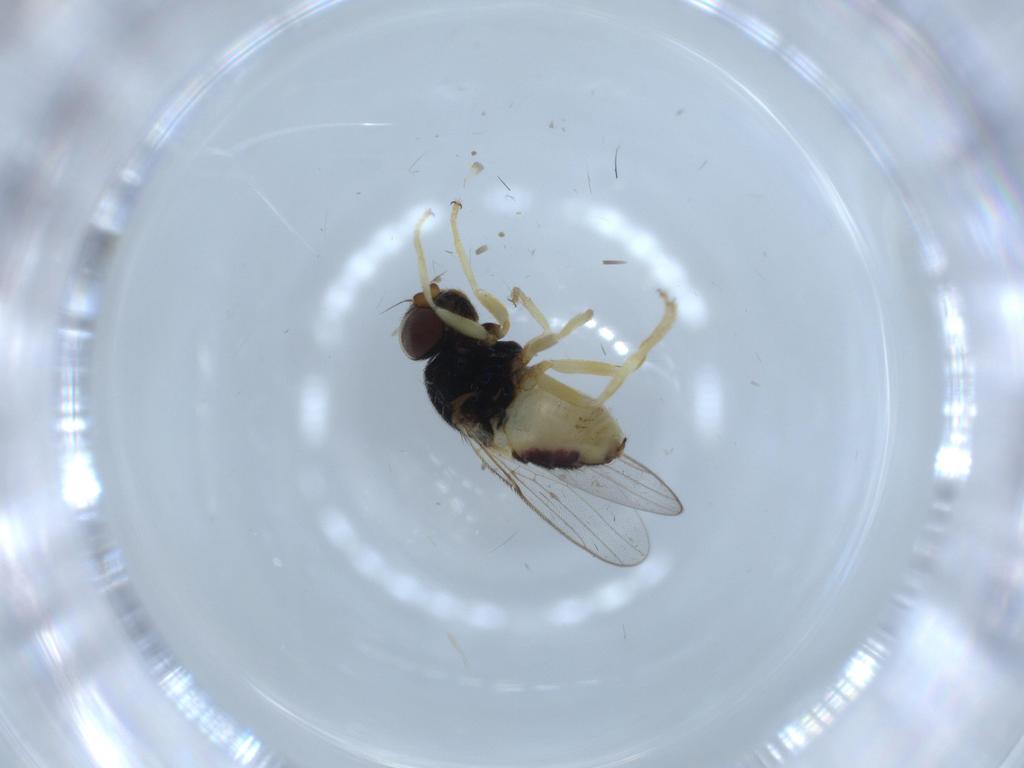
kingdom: Animalia
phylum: Arthropoda
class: Insecta
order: Diptera
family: Chloropidae
